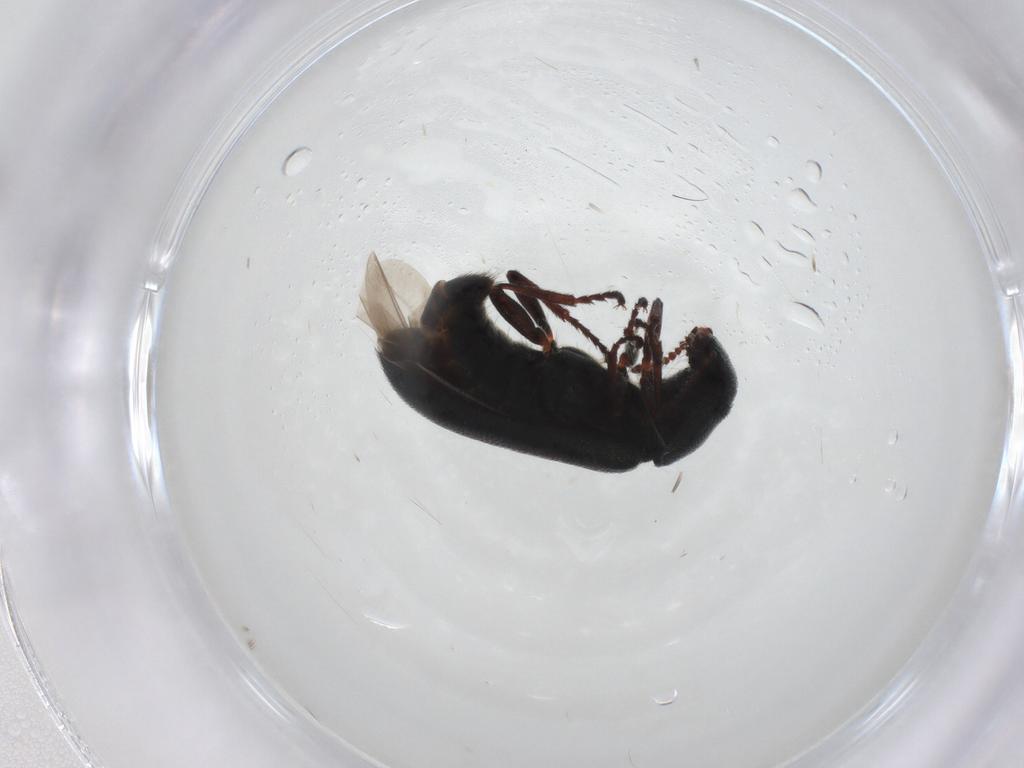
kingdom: Animalia
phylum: Arthropoda
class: Insecta
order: Coleoptera
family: Melyridae
